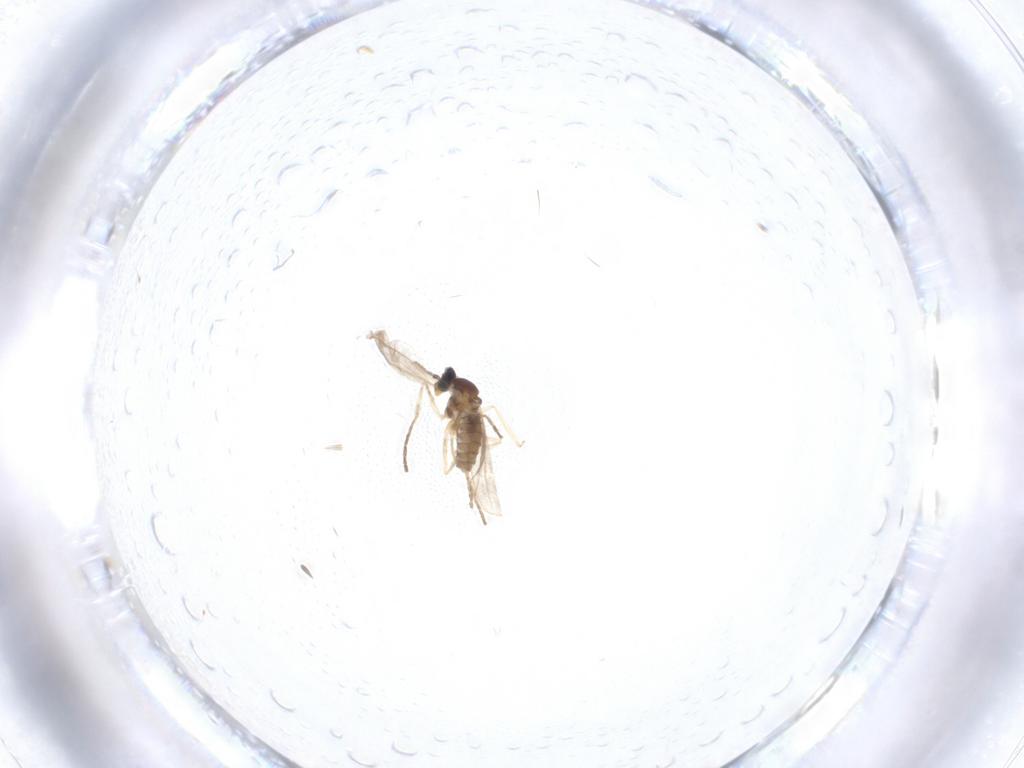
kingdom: Animalia
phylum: Arthropoda
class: Insecta
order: Diptera
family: Cecidomyiidae
